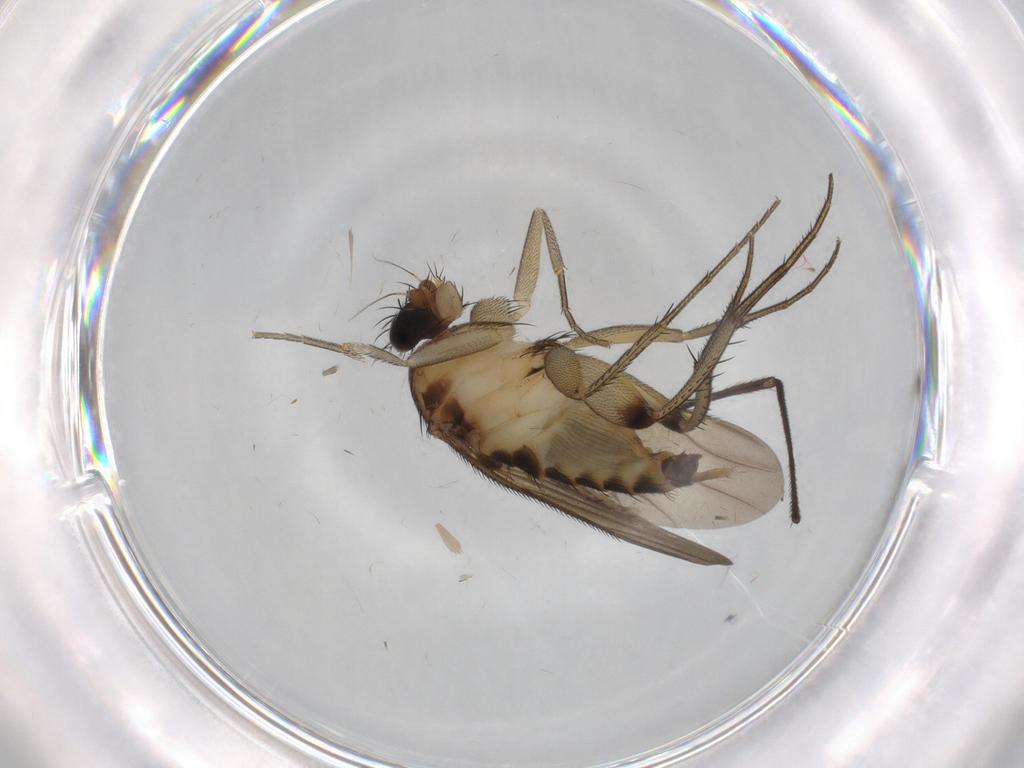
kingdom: Animalia
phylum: Arthropoda
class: Insecta
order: Diptera
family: Phoridae
